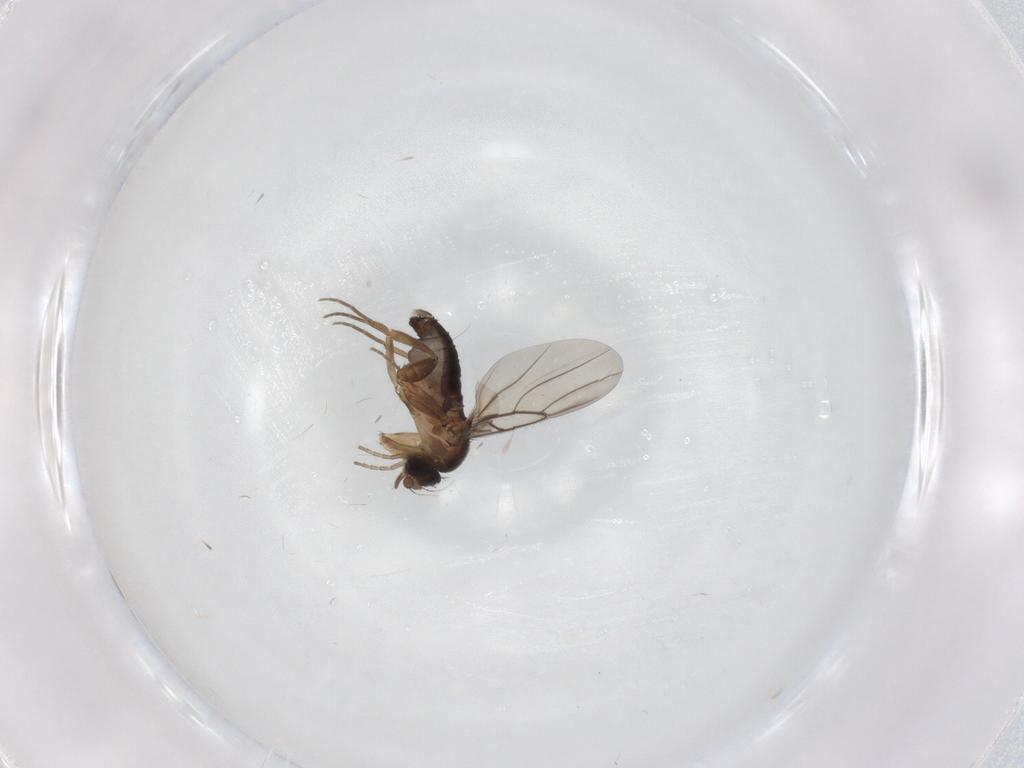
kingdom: Animalia
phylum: Arthropoda
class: Insecta
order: Diptera
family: Phoridae
